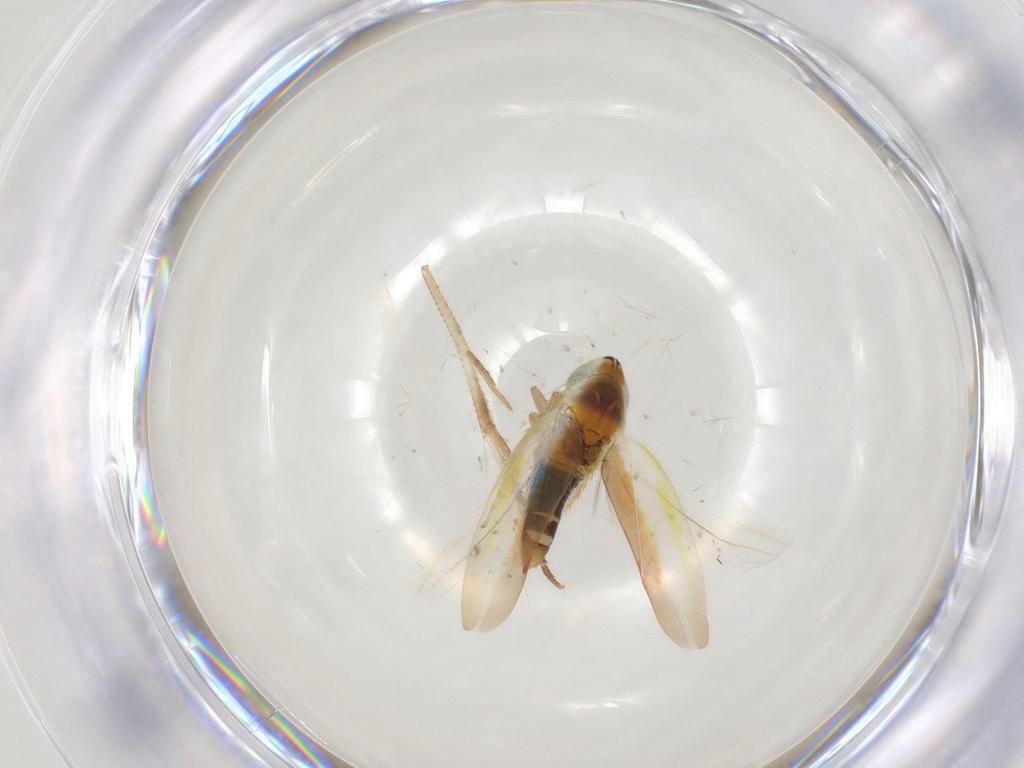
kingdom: Animalia
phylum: Arthropoda
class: Insecta
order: Hemiptera
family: Cicadellidae
